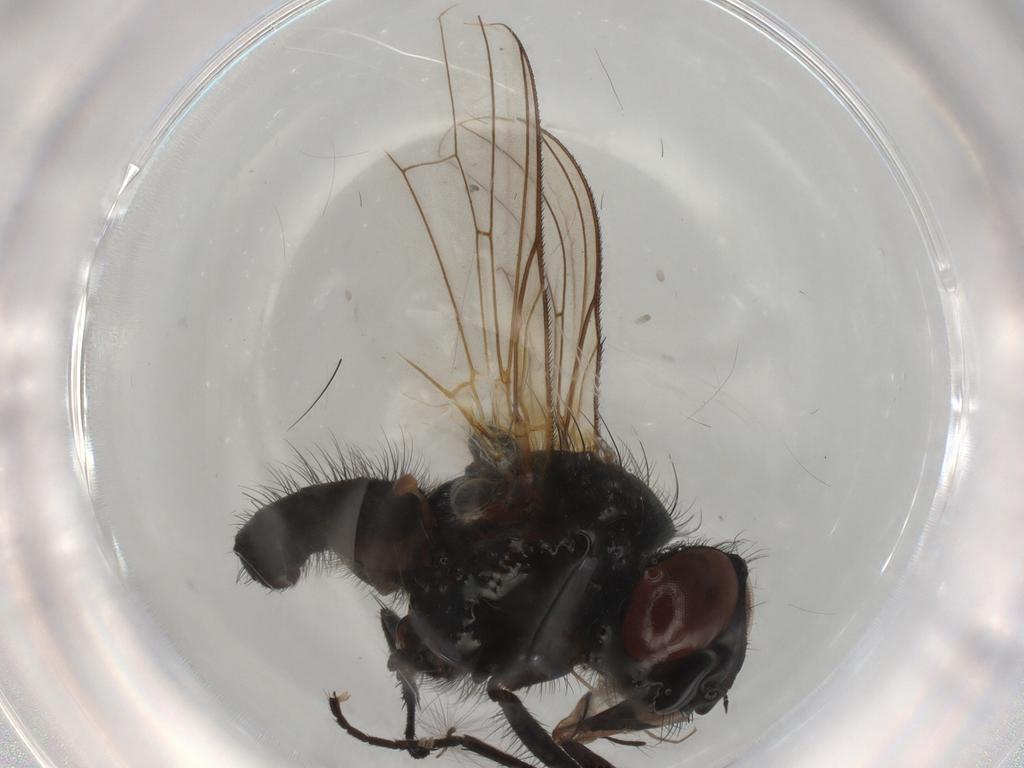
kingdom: Animalia
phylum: Arthropoda
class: Insecta
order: Diptera
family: Anthomyiidae
